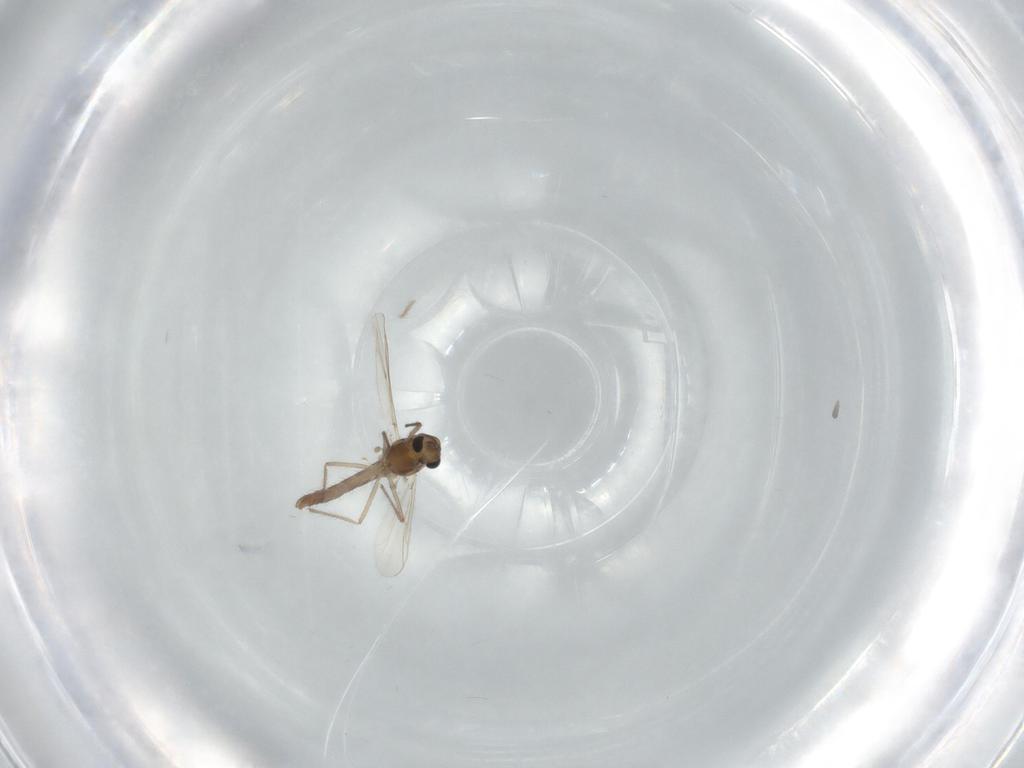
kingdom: Animalia
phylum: Arthropoda
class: Insecta
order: Diptera
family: Chironomidae
